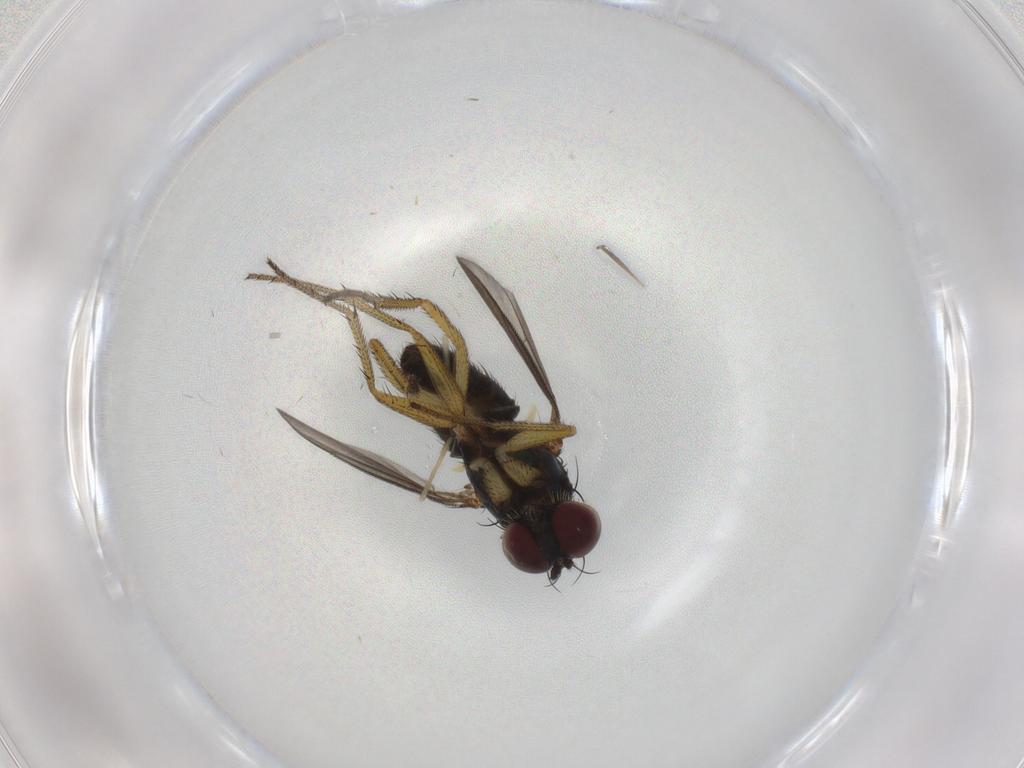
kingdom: Animalia
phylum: Arthropoda
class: Insecta
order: Diptera
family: Dolichopodidae
